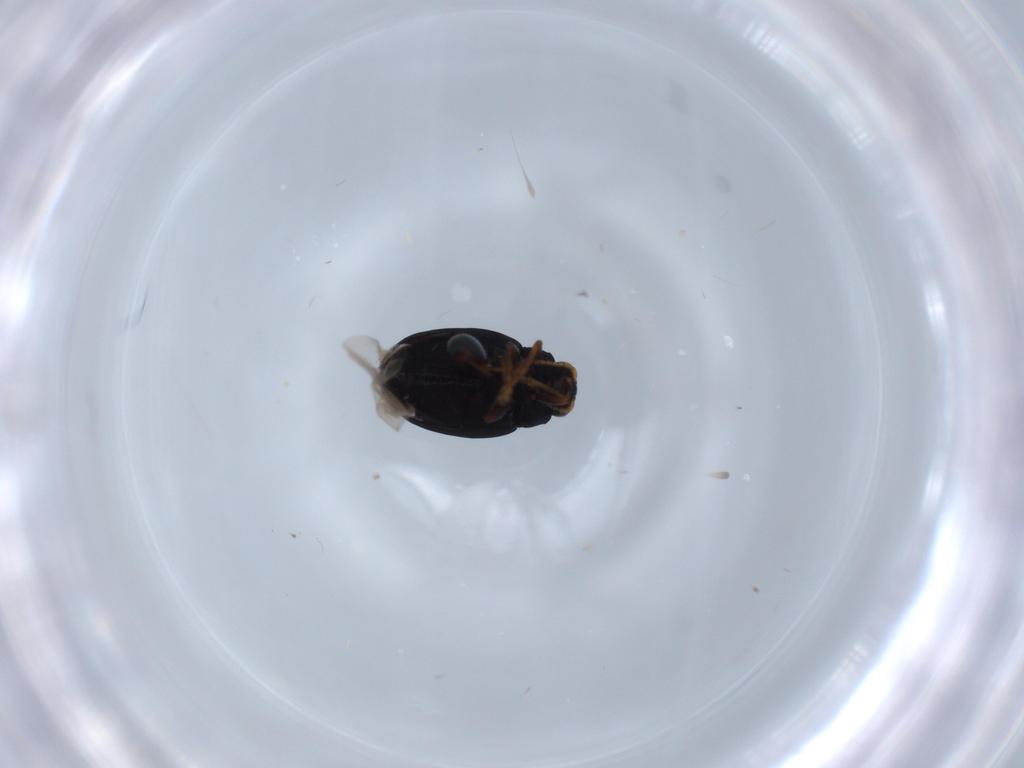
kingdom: Animalia
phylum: Arthropoda
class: Insecta
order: Coleoptera
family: Chrysomelidae
